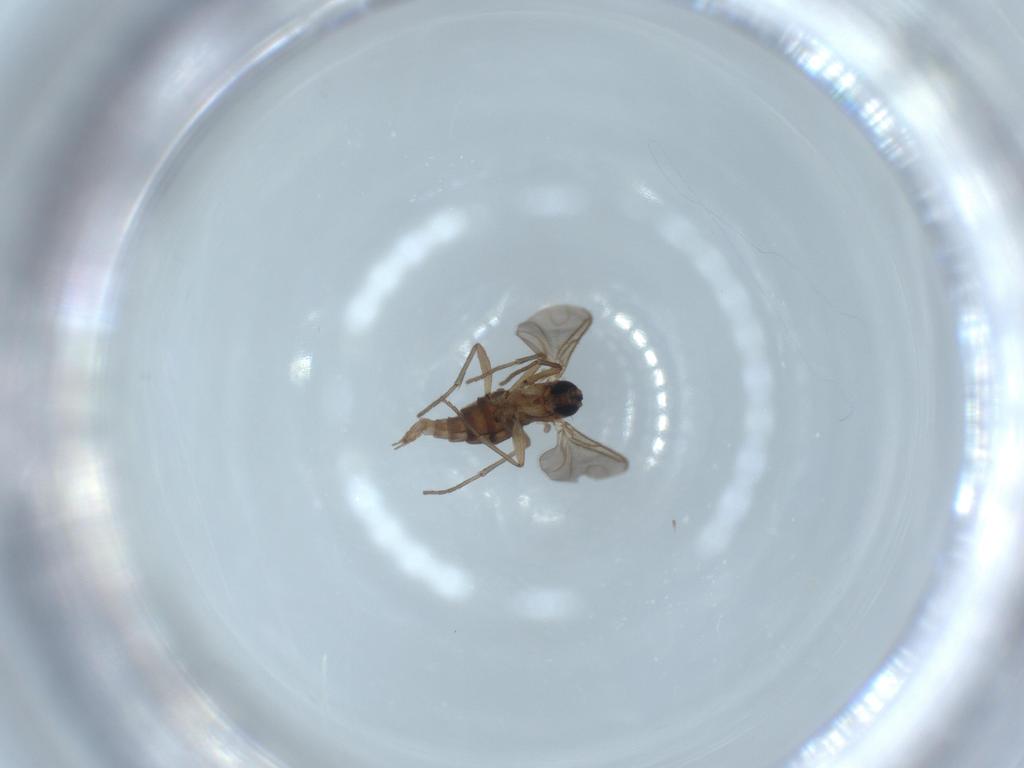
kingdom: Animalia
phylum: Arthropoda
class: Insecta
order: Diptera
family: Sciaridae
